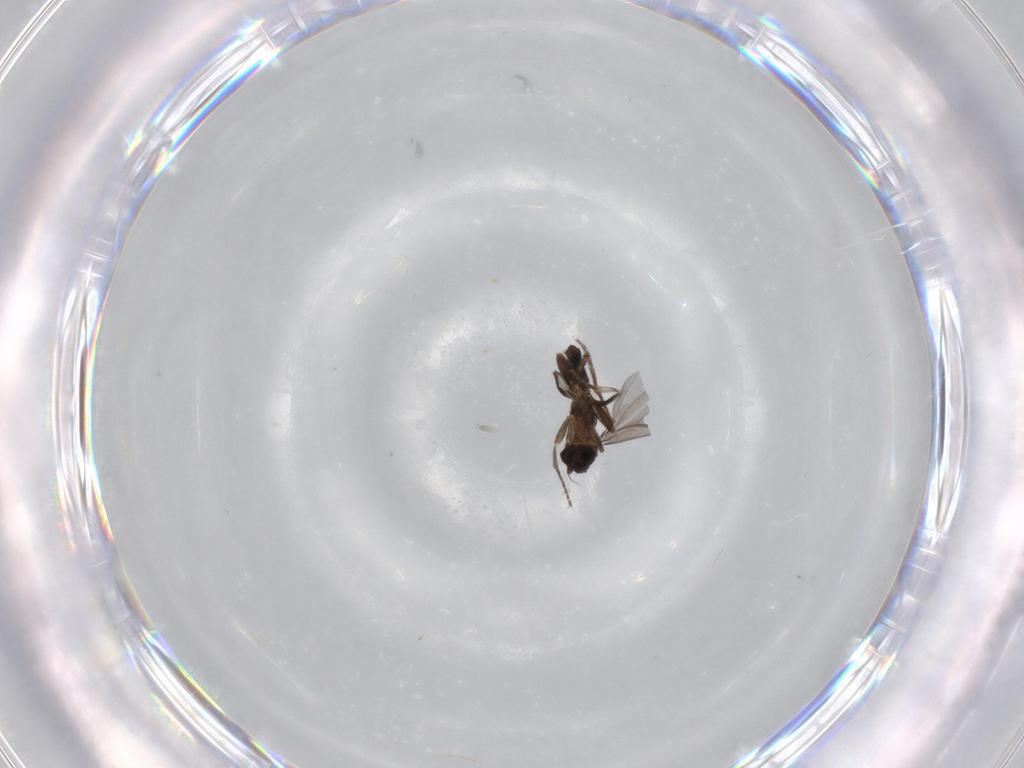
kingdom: Animalia
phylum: Arthropoda
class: Insecta
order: Diptera
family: Phoridae
